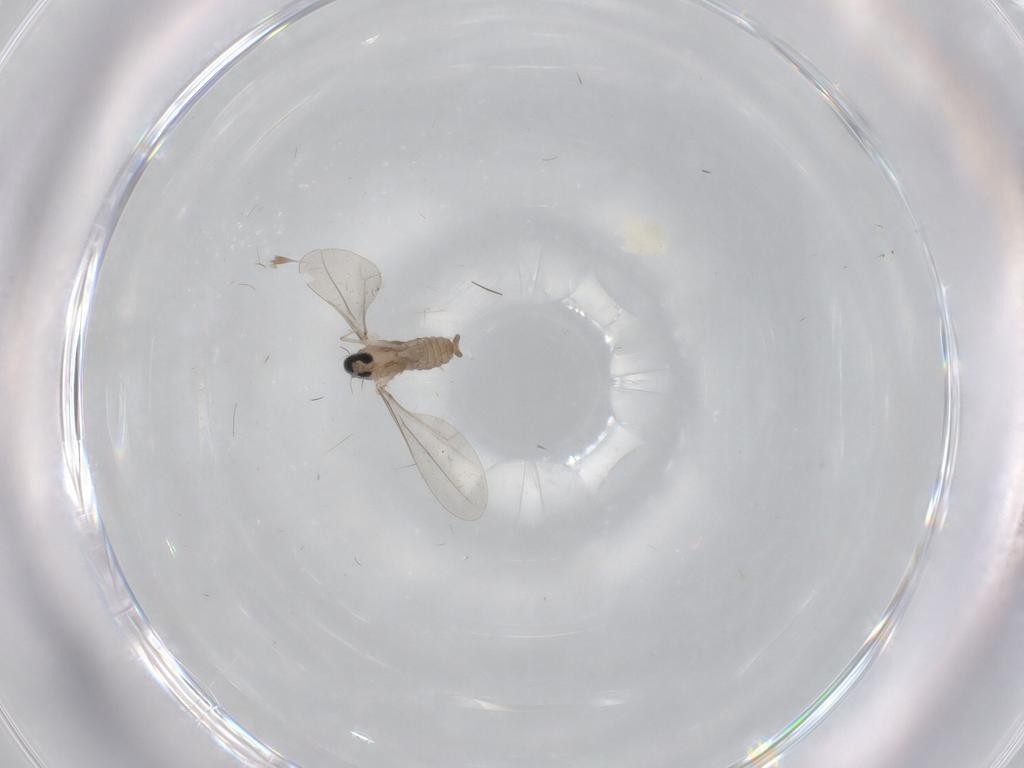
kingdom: Animalia
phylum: Arthropoda
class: Insecta
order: Diptera
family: Cecidomyiidae
